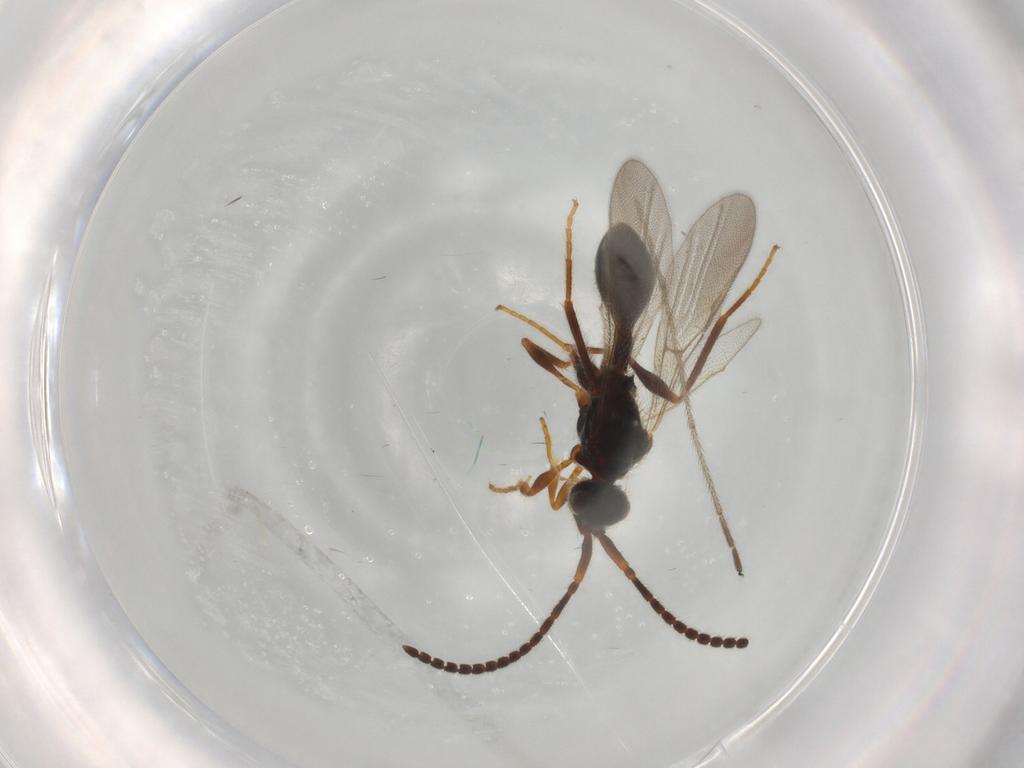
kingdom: Animalia
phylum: Arthropoda
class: Insecta
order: Hymenoptera
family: Vespidae
